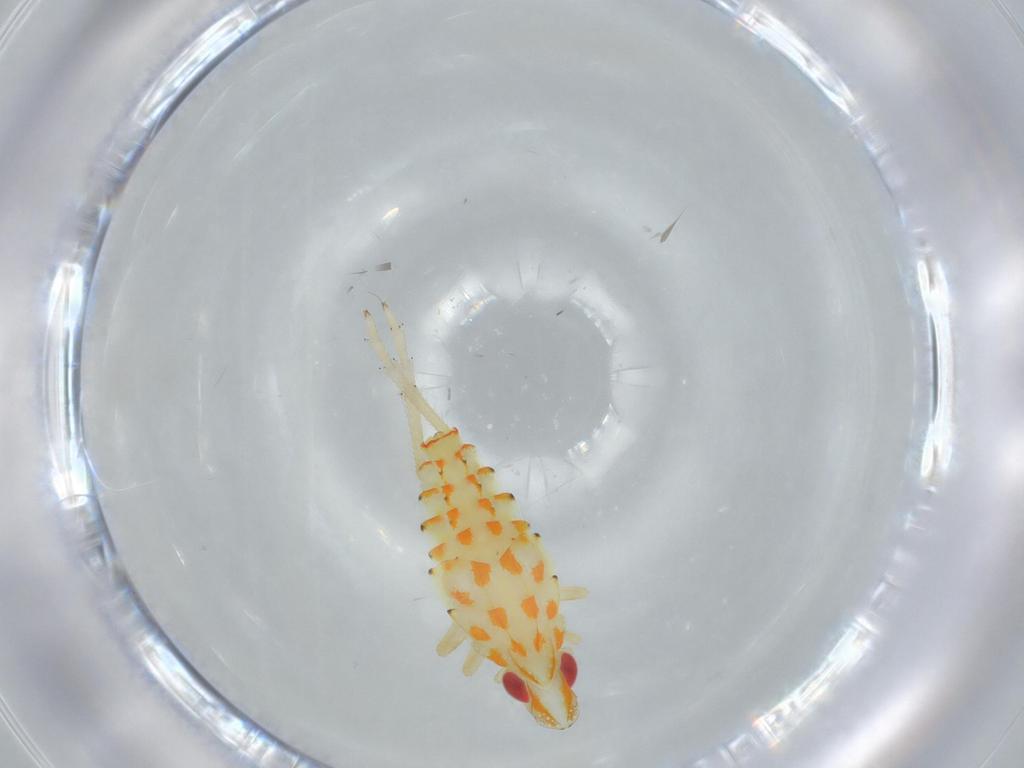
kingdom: Animalia
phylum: Arthropoda
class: Insecta
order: Hemiptera
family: Tropiduchidae
